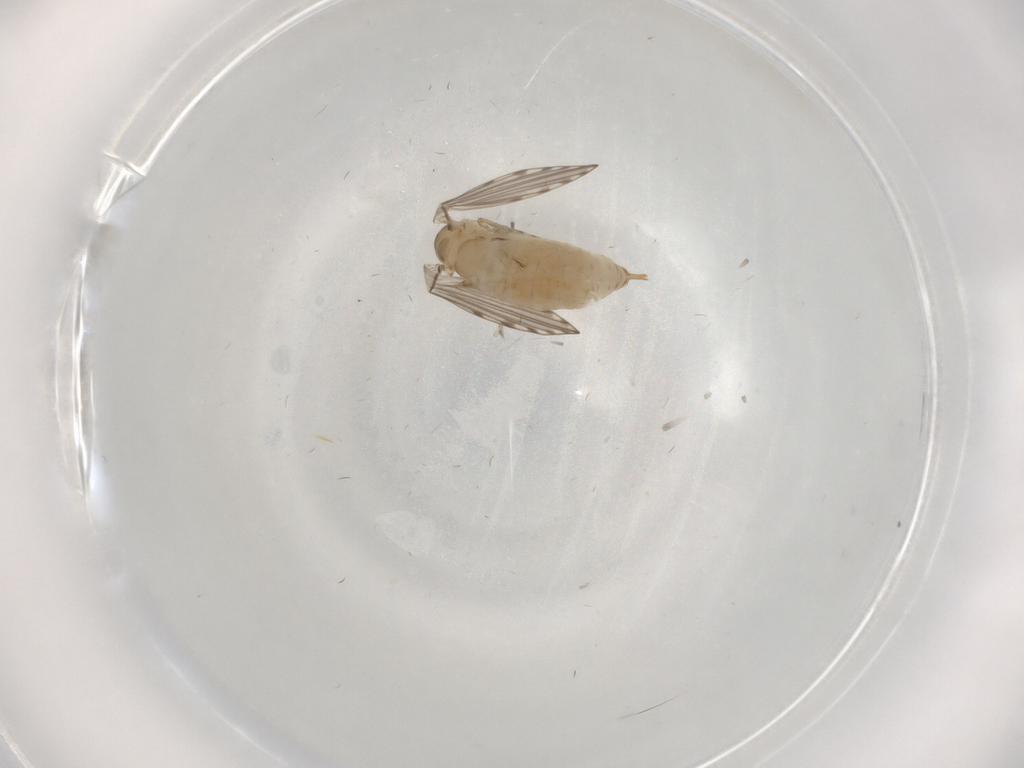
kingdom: Animalia
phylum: Arthropoda
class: Insecta
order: Diptera
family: Psychodidae
